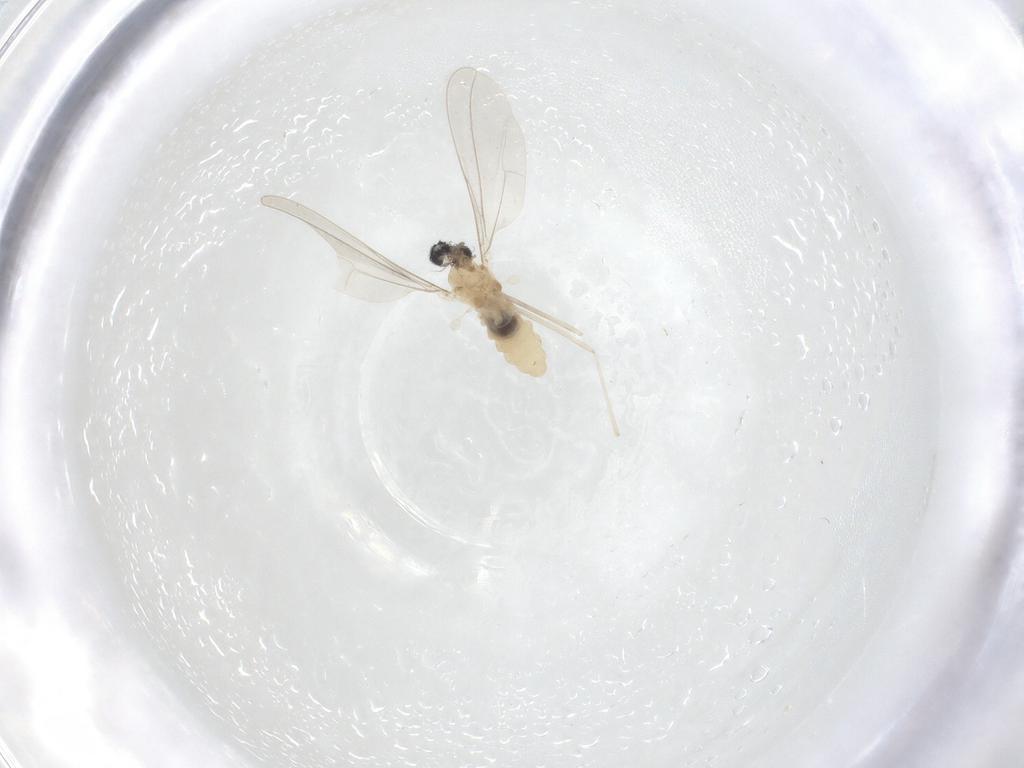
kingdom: Animalia
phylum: Arthropoda
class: Insecta
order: Diptera
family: Cecidomyiidae
